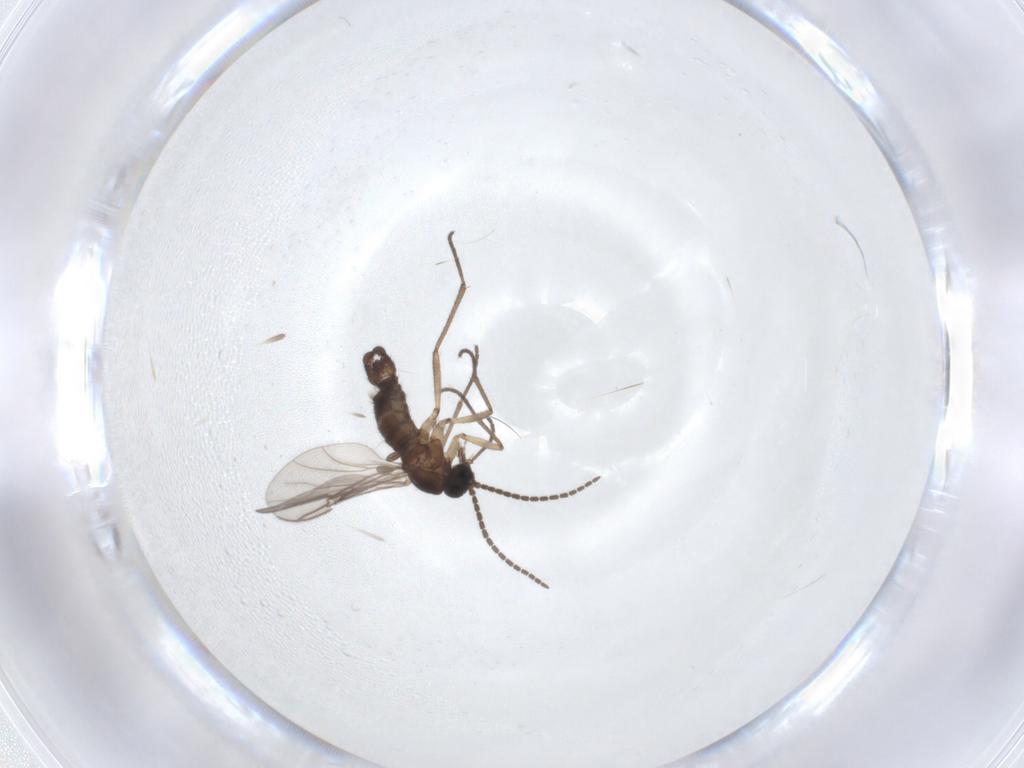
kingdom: Animalia
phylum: Arthropoda
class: Insecta
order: Diptera
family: Sciaridae
